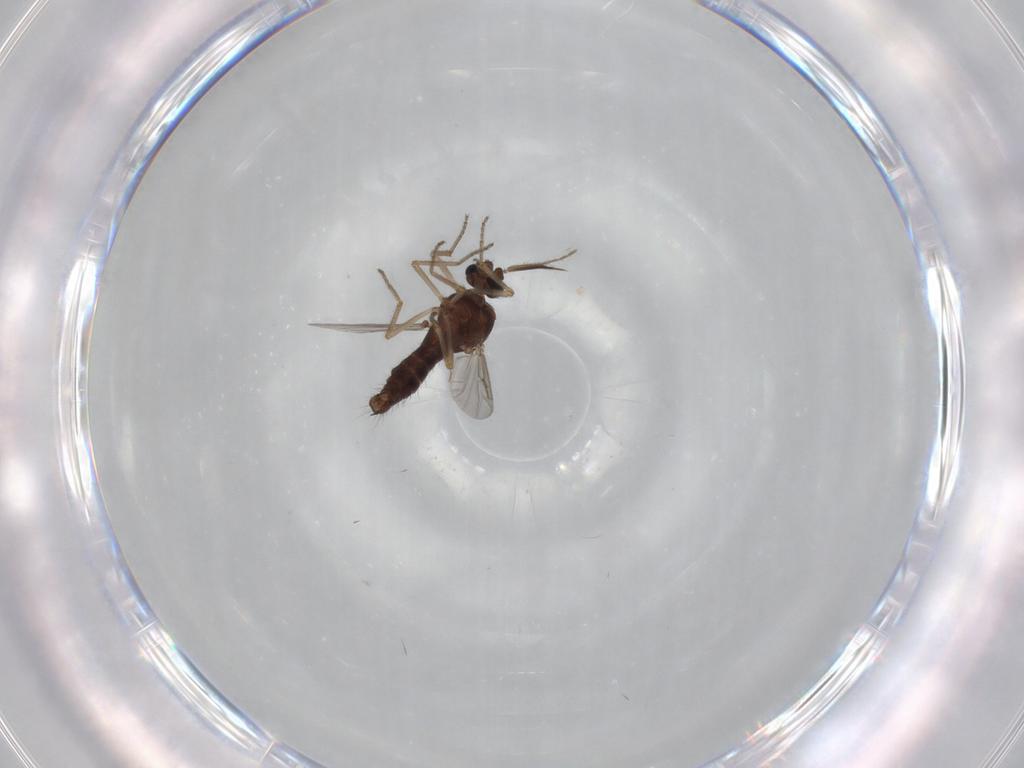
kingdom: Animalia
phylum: Arthropoda
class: Insecta
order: Diptera
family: Ceratopogonidae
